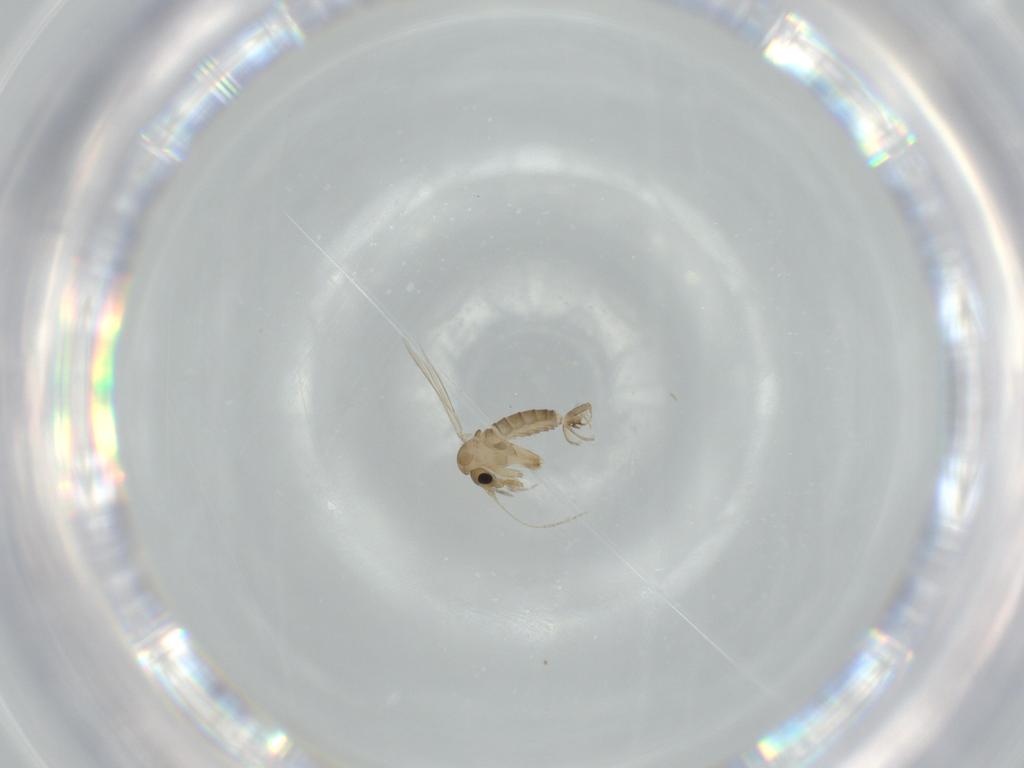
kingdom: Animalia
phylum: Arthropoda
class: Insecta
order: Diptera
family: Psychodidae
